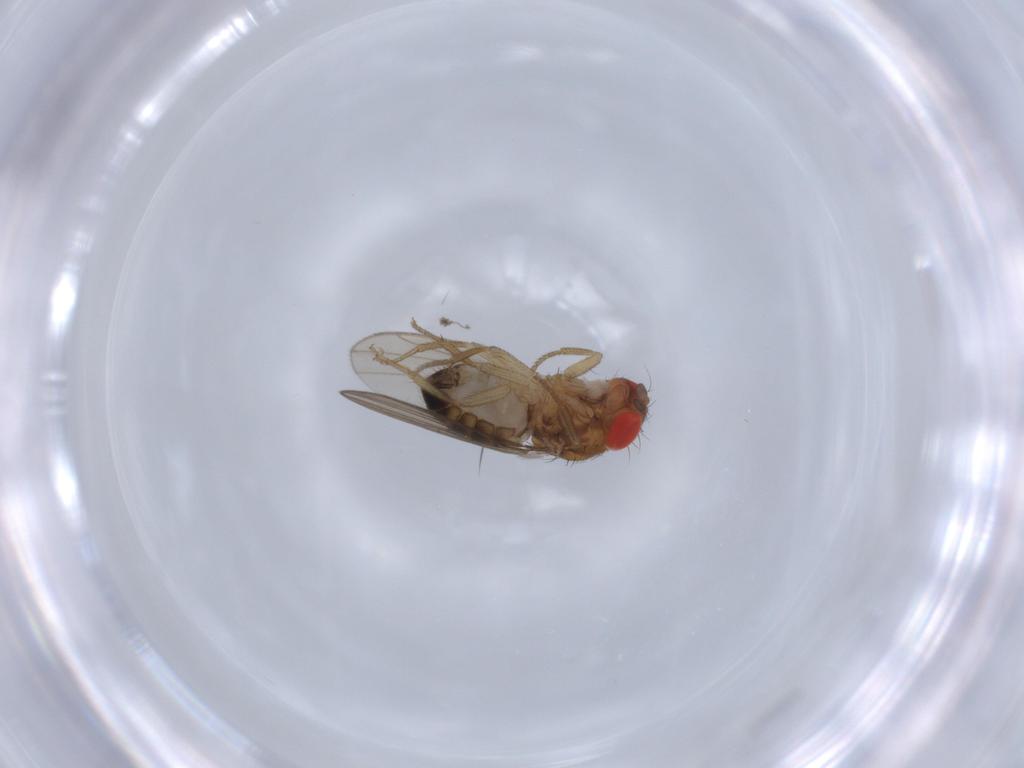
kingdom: Animalia
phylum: Arthropoda
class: Insecta
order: Diptera
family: Drosophilidae
